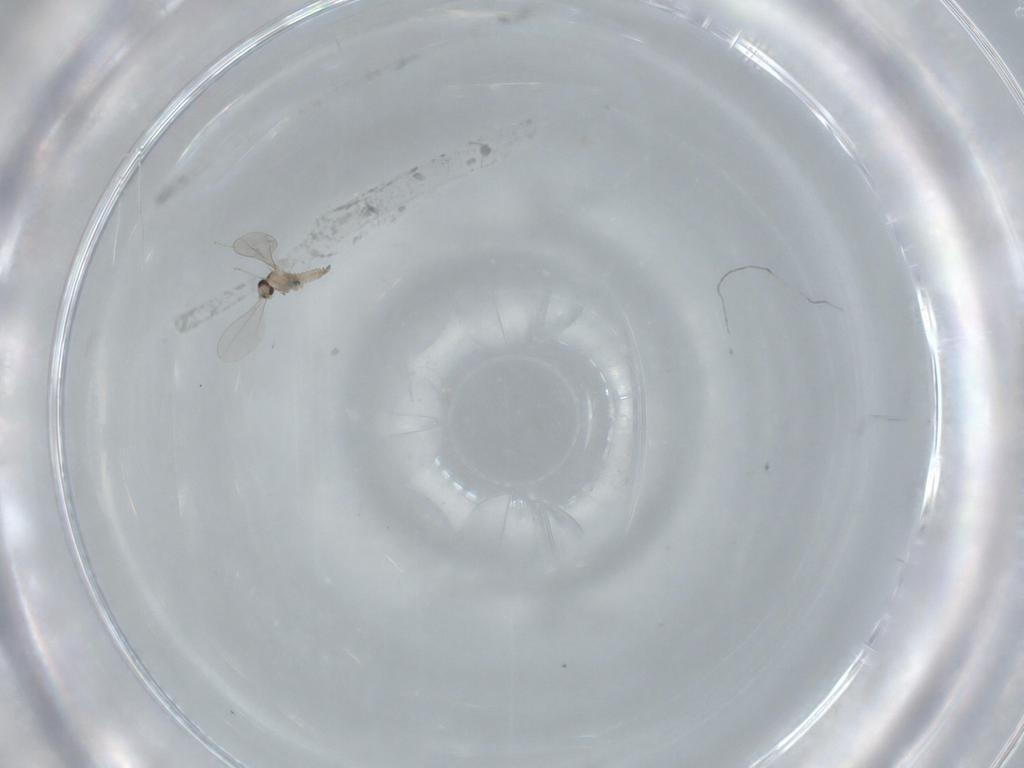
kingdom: Animalia
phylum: Arthropoda
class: Insecta
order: Diptera
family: Cecidomyiidae
